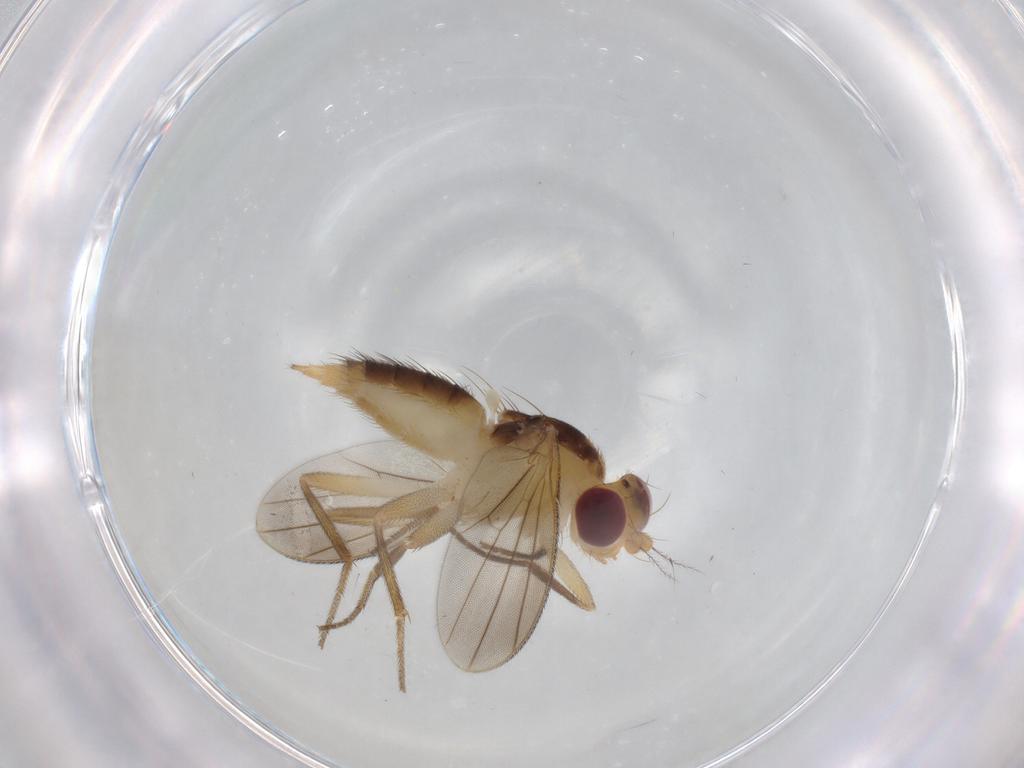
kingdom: Animalia
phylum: Arthropoda
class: Insecta
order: Diptera
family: Agromyzidae
